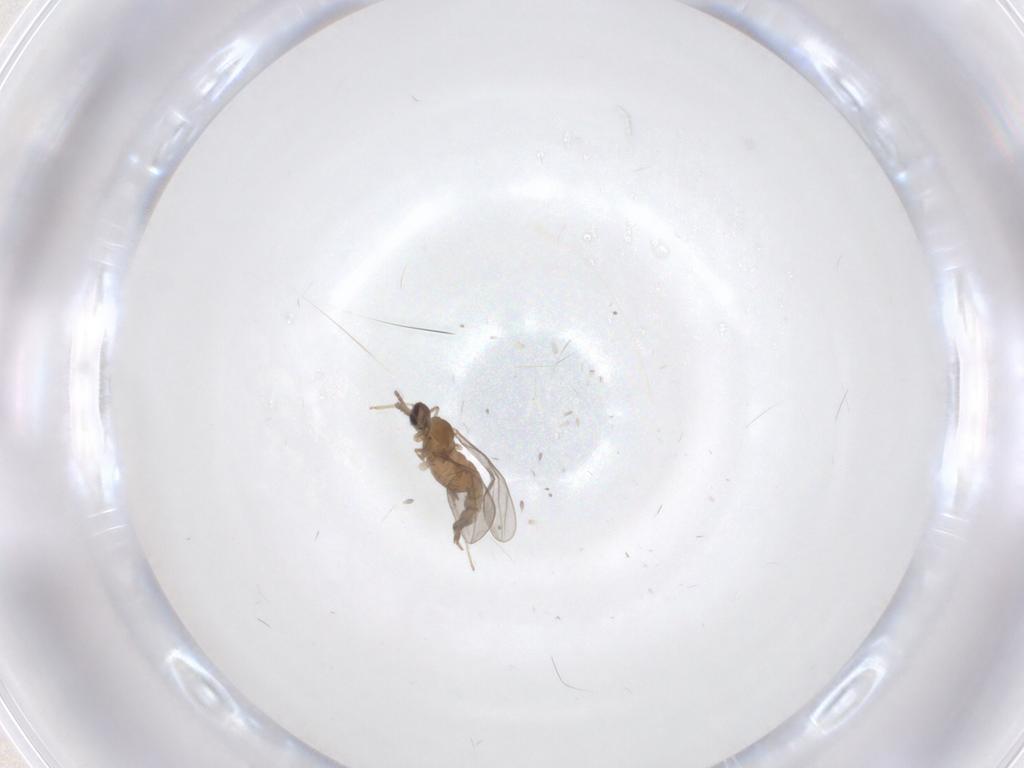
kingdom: Animalia
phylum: Arthropoda
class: Insecta
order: Diptera
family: Cecidomyiidae
